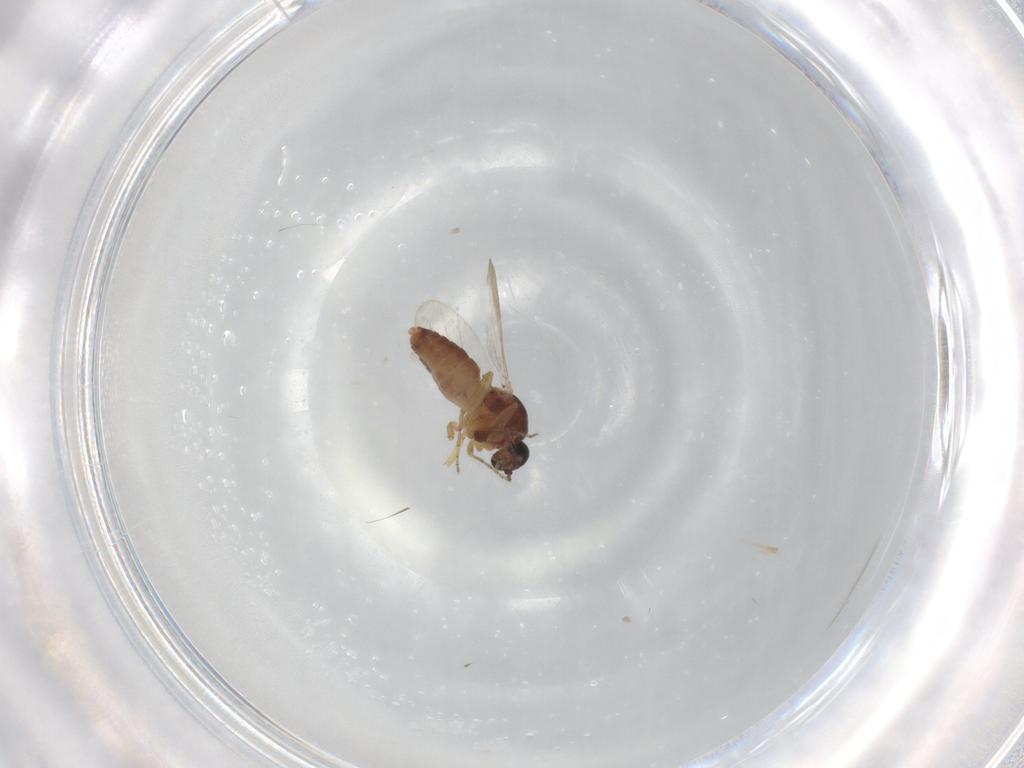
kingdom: Animalia
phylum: Arthropoda
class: Insecta
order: Diptera
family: Ceratopogonidae
